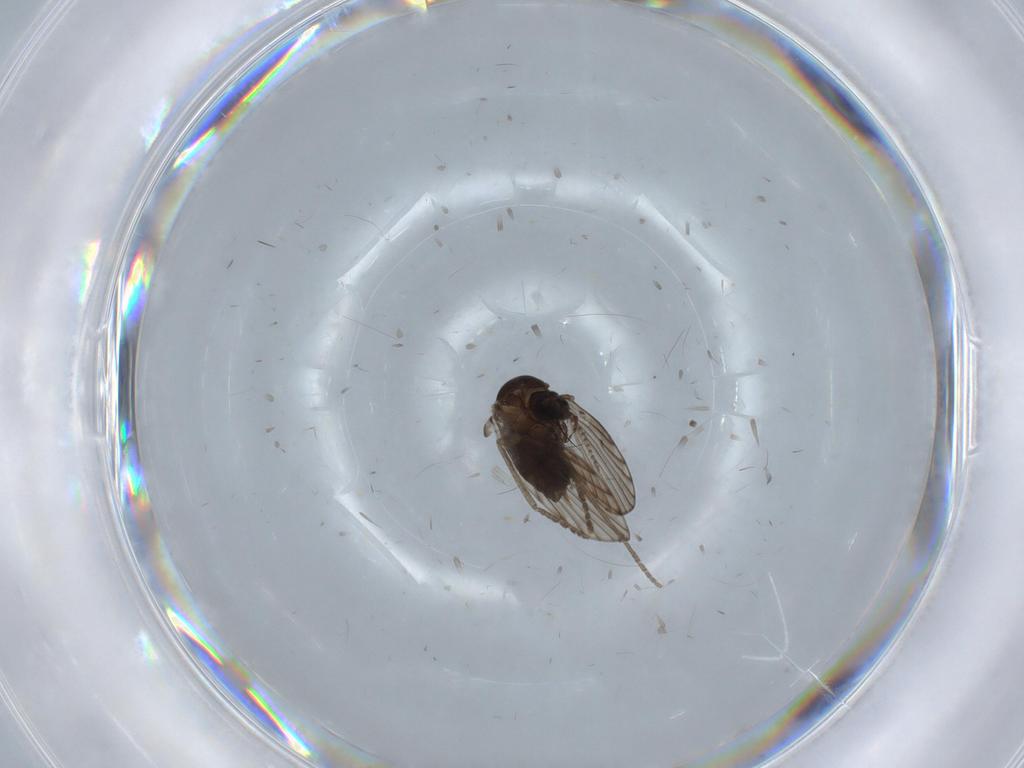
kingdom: Animalia
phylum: Arthropoda
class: Insecta
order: Diptera
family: Psychodidae
